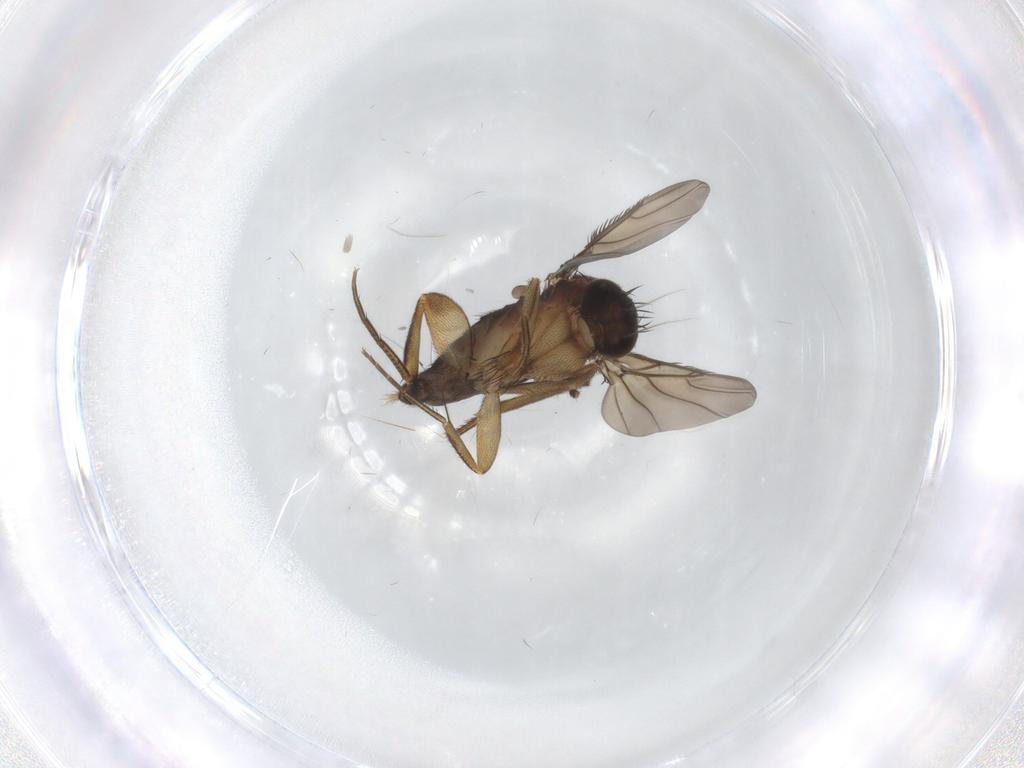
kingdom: Animalia
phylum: Arthropoda
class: Insecta
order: Diptera
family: Phoridae
